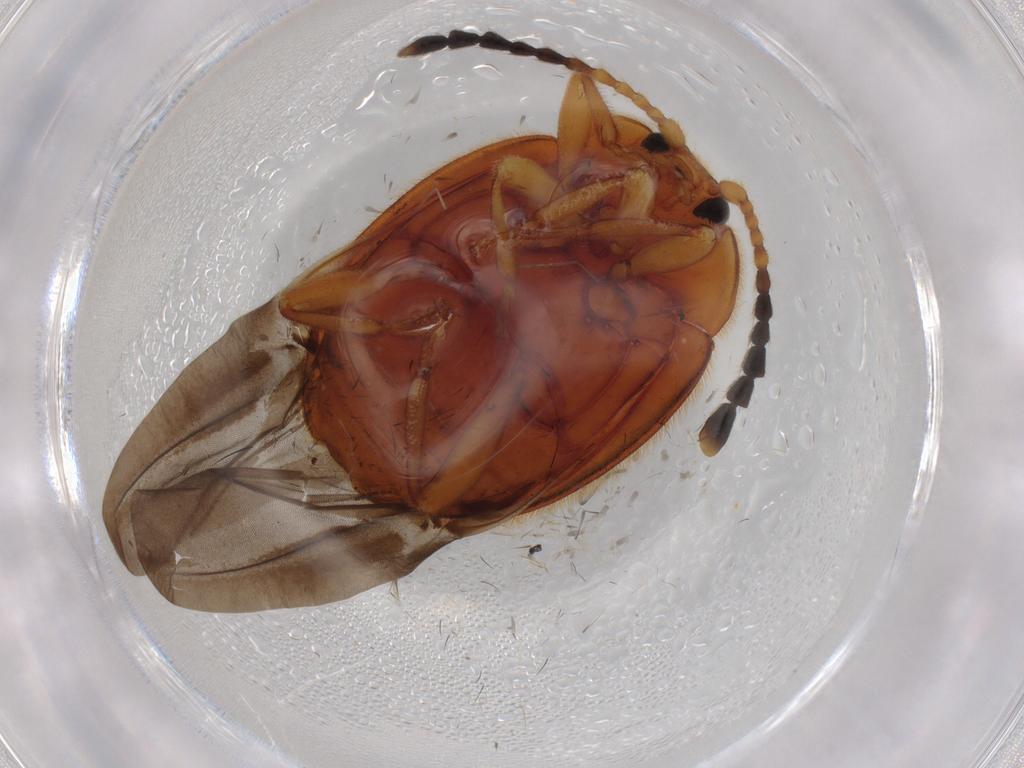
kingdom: Animalia
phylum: Arthropoda
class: Insecta
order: Coleoptera
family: Endomychidae
